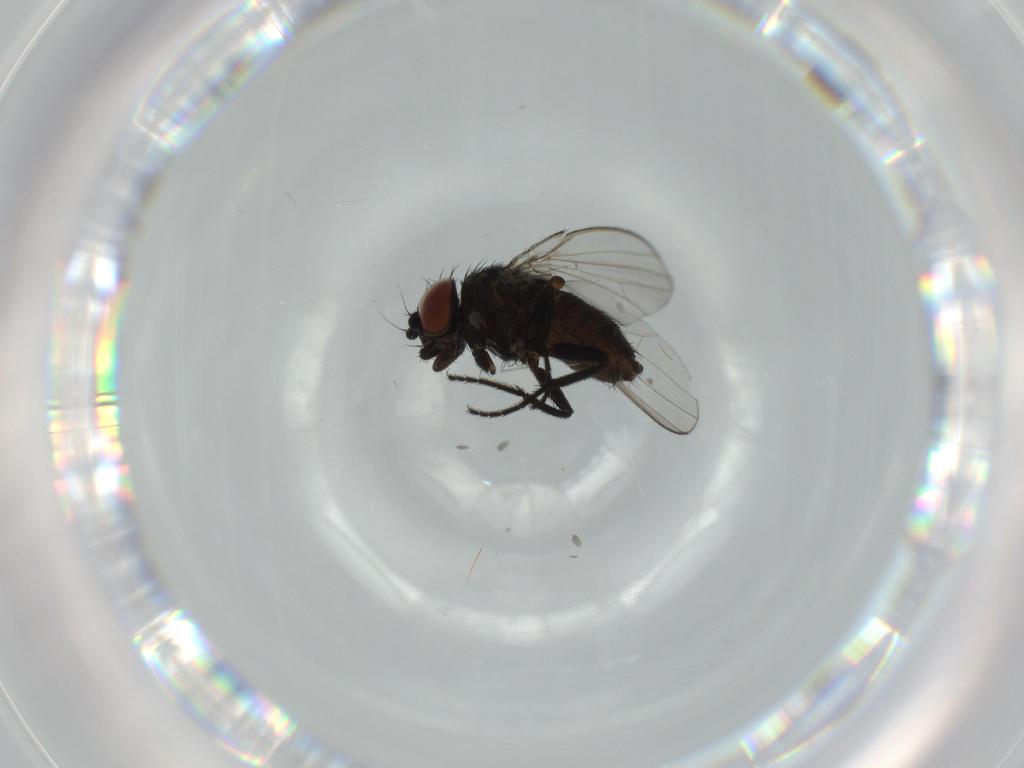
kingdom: Animalia
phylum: Arthropoda
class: Insecta
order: Diptera
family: Milichiidae
